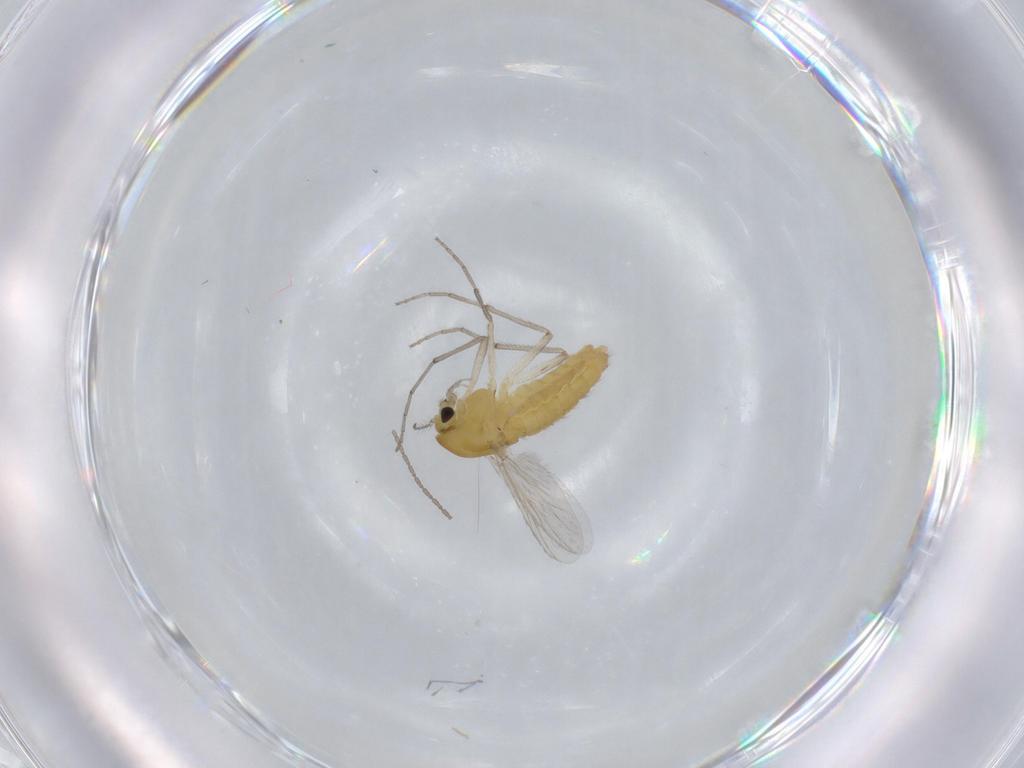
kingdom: Animalia
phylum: Arthropoda
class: Insecta
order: Diptera
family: Chironomidae
